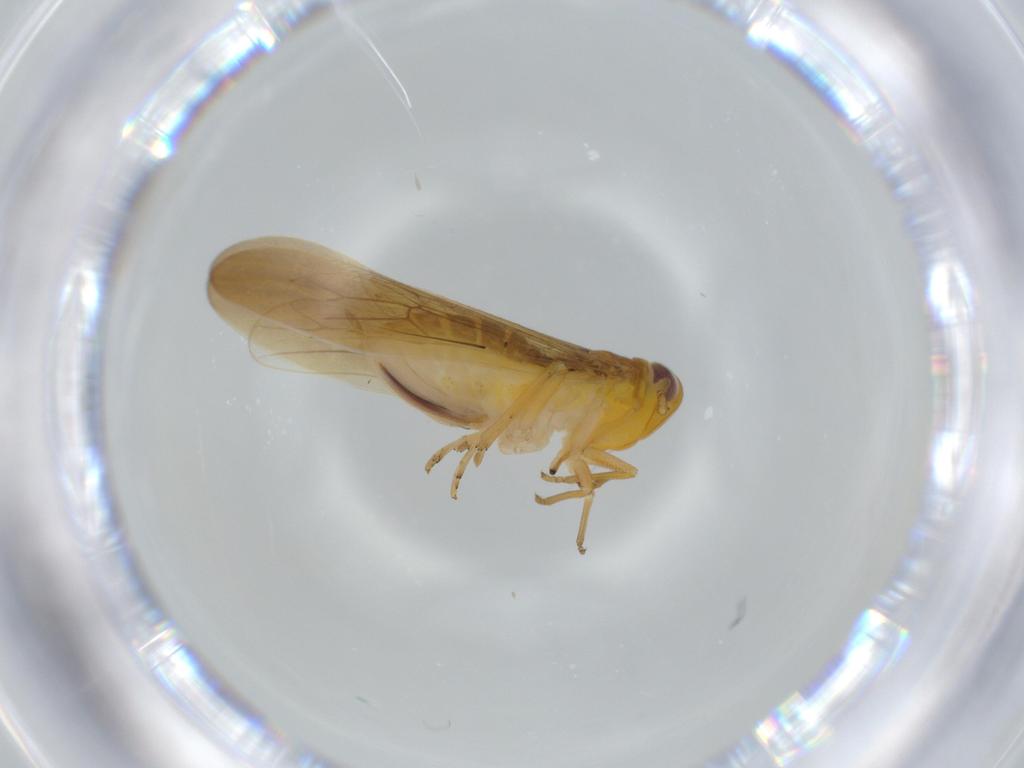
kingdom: Animalia
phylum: Arthropoda
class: Insecta
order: Hemiptera
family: Delphacidae
